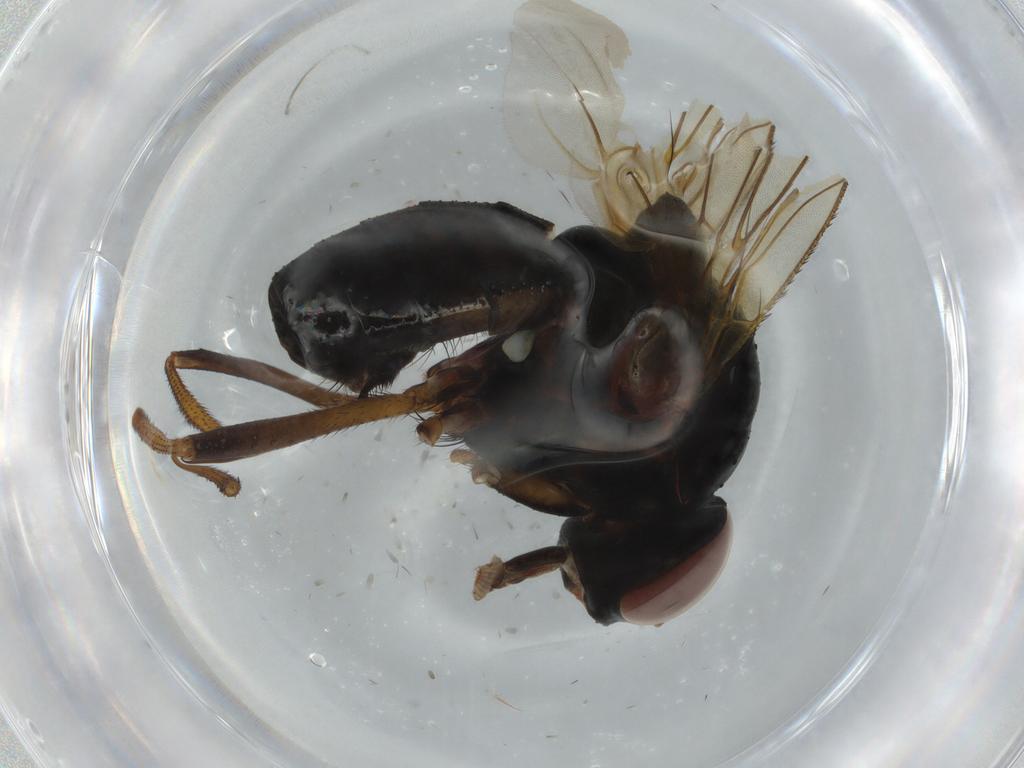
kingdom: Animalia
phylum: Arthropoda
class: Insecta
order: Diptera
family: Anthomyiidae
